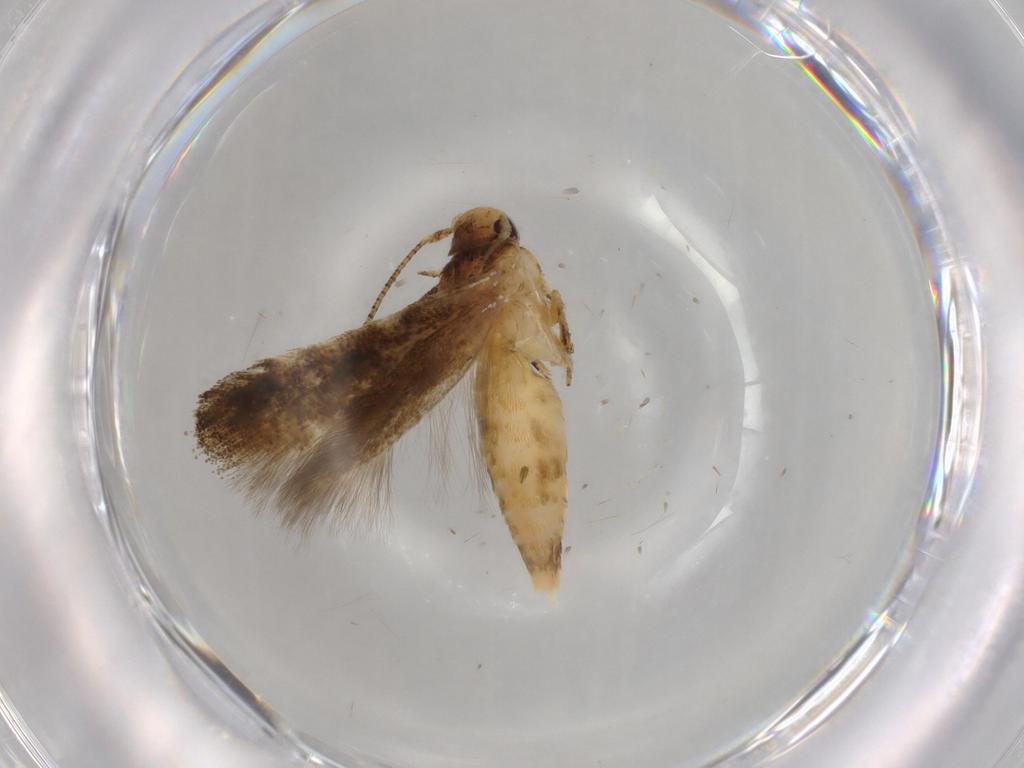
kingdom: Animalia
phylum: Arthropoda
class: Insecta
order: Lepidoptera
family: Momphidae
